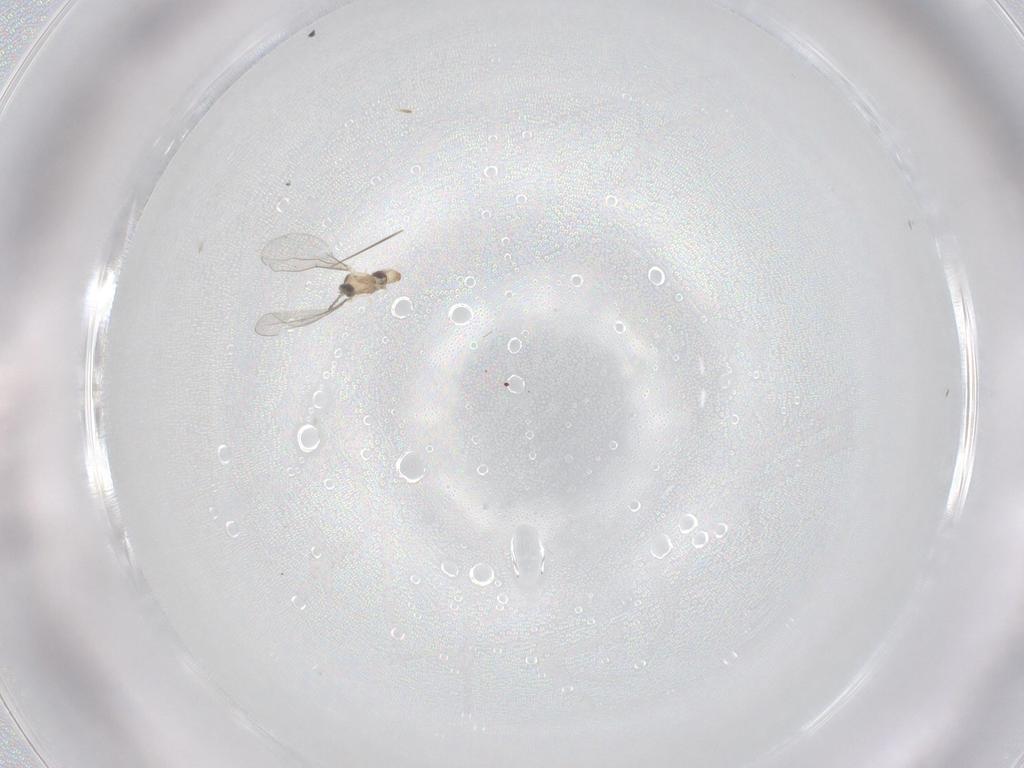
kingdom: Animalia
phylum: Arthropoda
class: Insecta
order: Diptera
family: Cecidomyiidae
